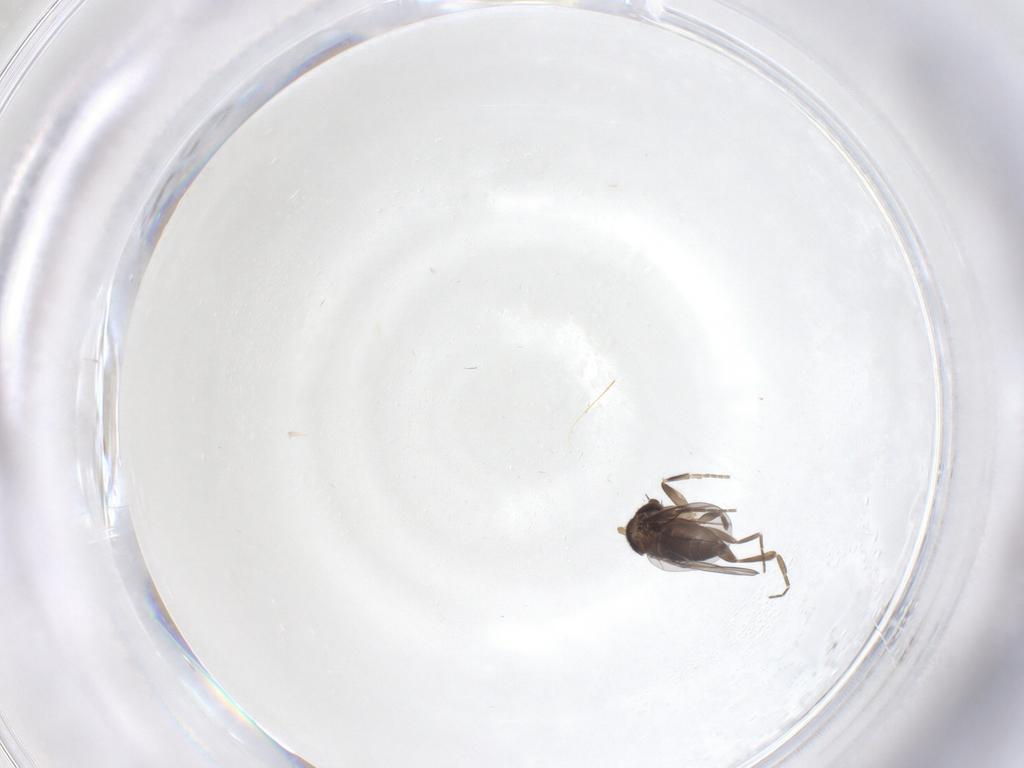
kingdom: Animalia
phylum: Arthropoda
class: Insecta
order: Diptera
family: Phoridae
